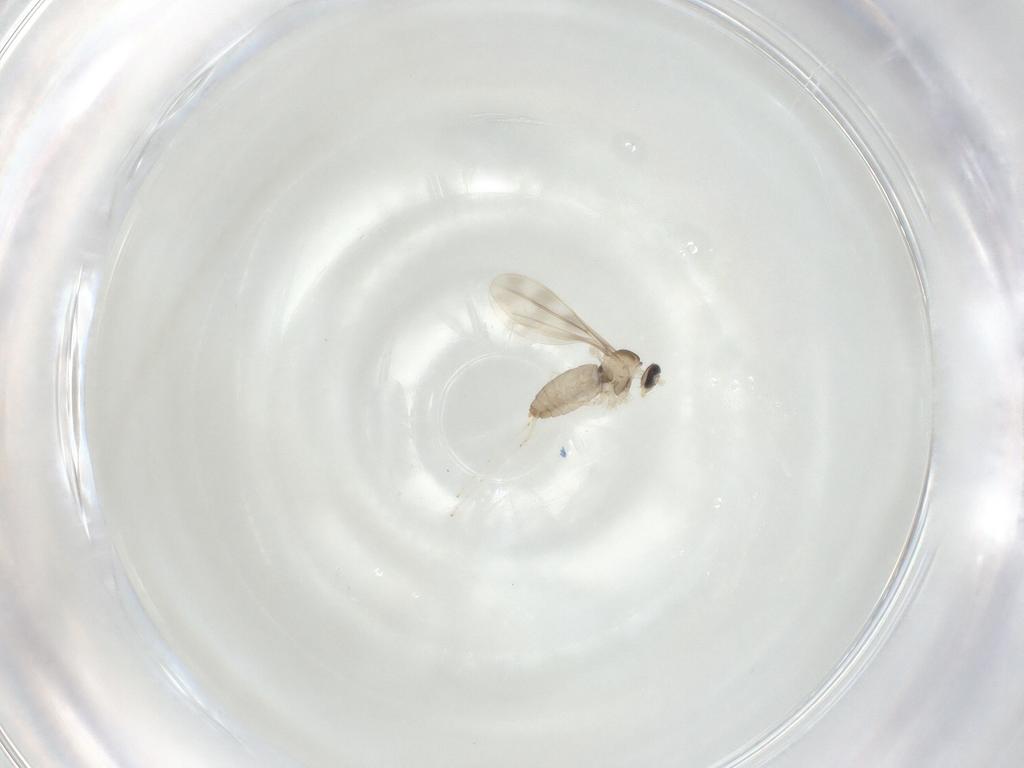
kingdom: Animalia
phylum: Arthropoda
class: Insecta
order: Diptera
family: Cecidomyiidae
